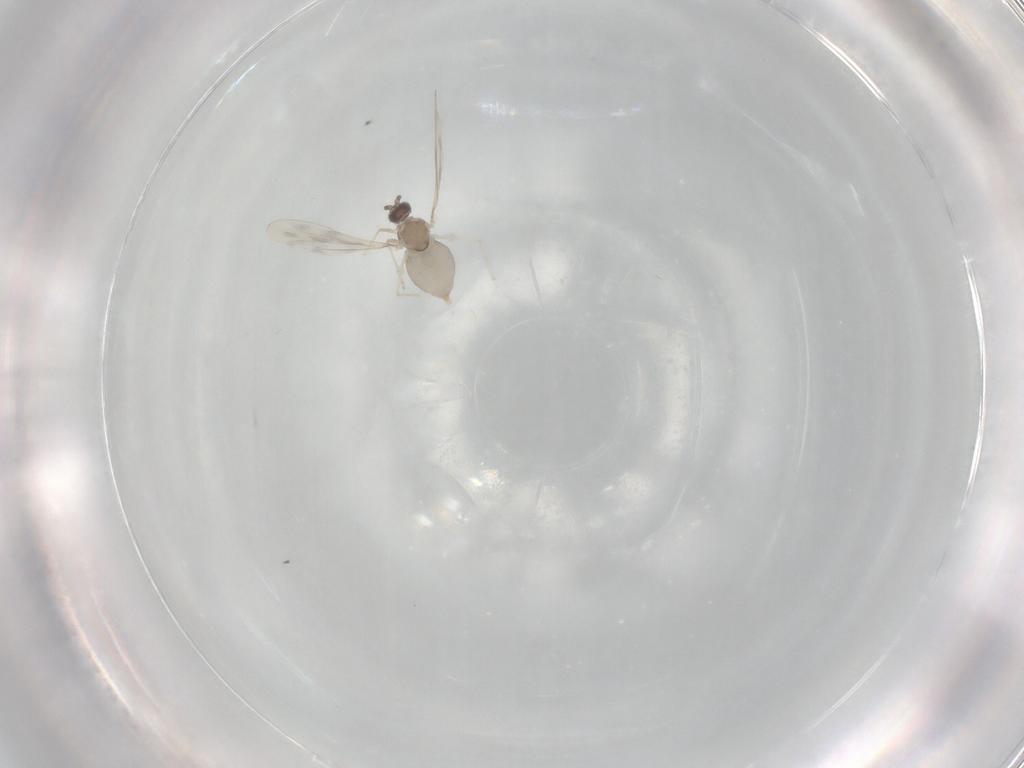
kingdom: Animalia
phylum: Arthropoda
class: Insecta
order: Diptera
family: Cecidomyiidae
